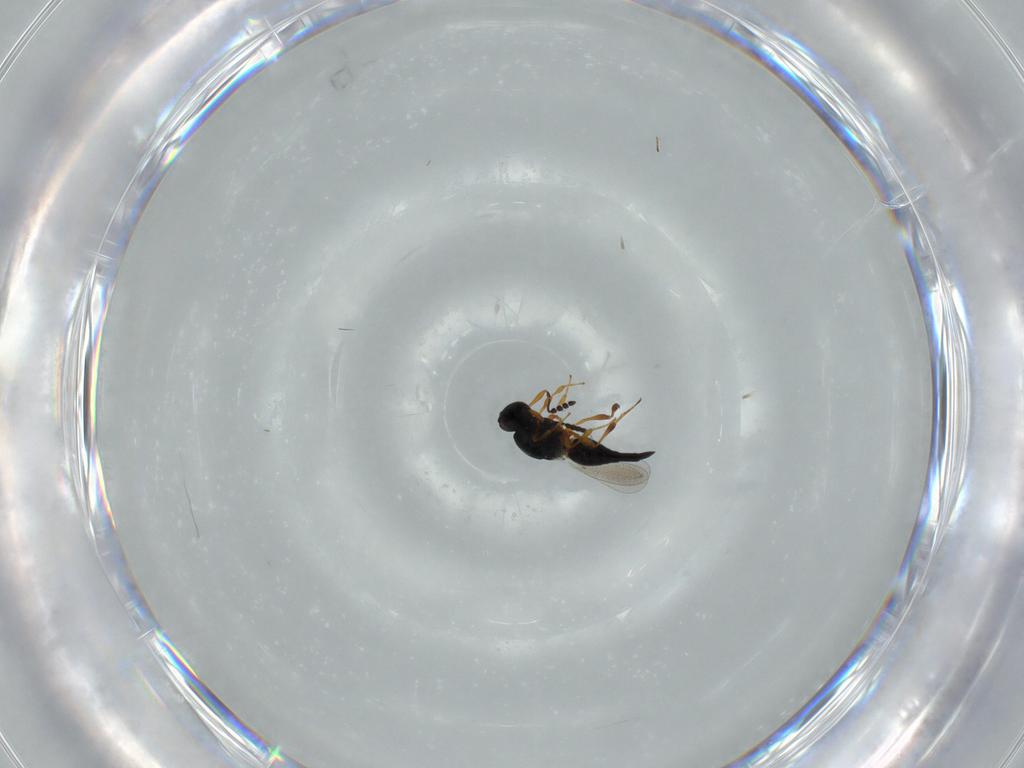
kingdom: Animalia
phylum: Arthropoda
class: Insecta
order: Hymenoptera
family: Platygastridae
